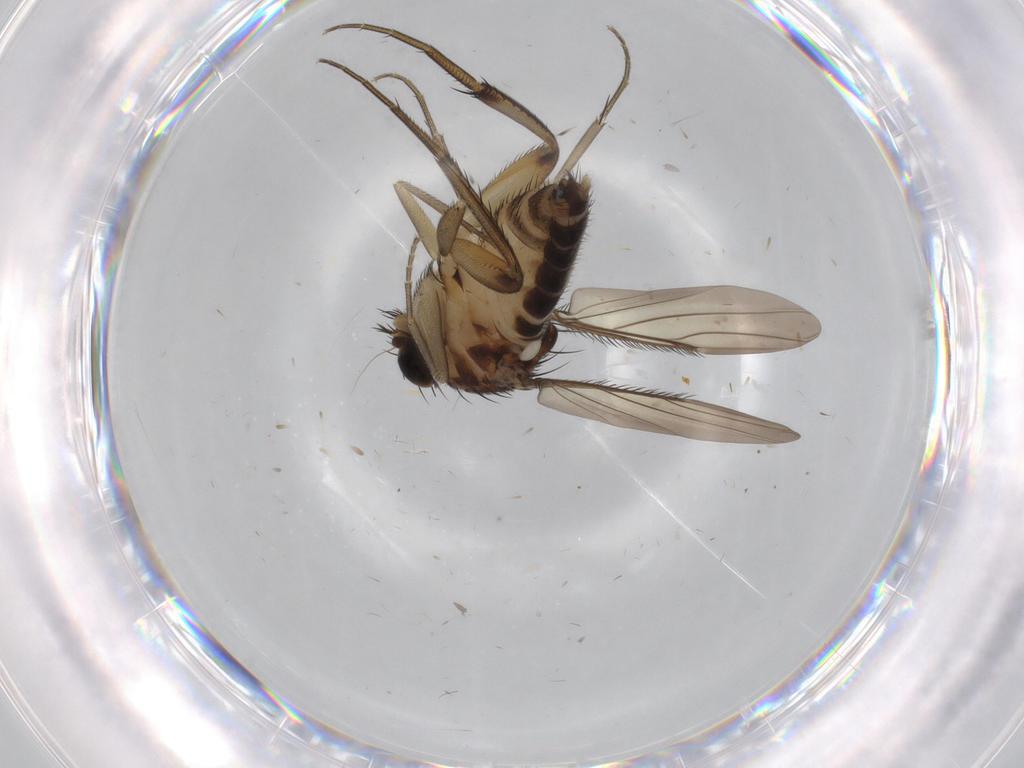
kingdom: Animalia
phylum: Arthropoda
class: Insecta
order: Diptera
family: Phoridae
